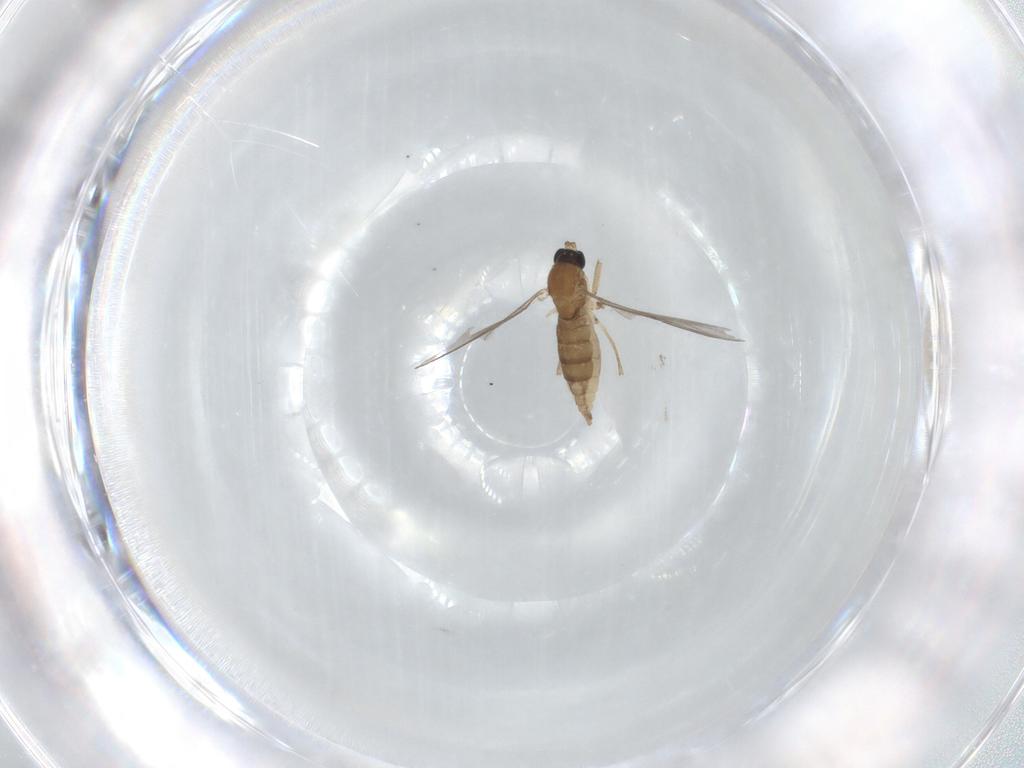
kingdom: Animalia
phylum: Arthropoda
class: Insecta
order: Diptera
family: Sciaridae
